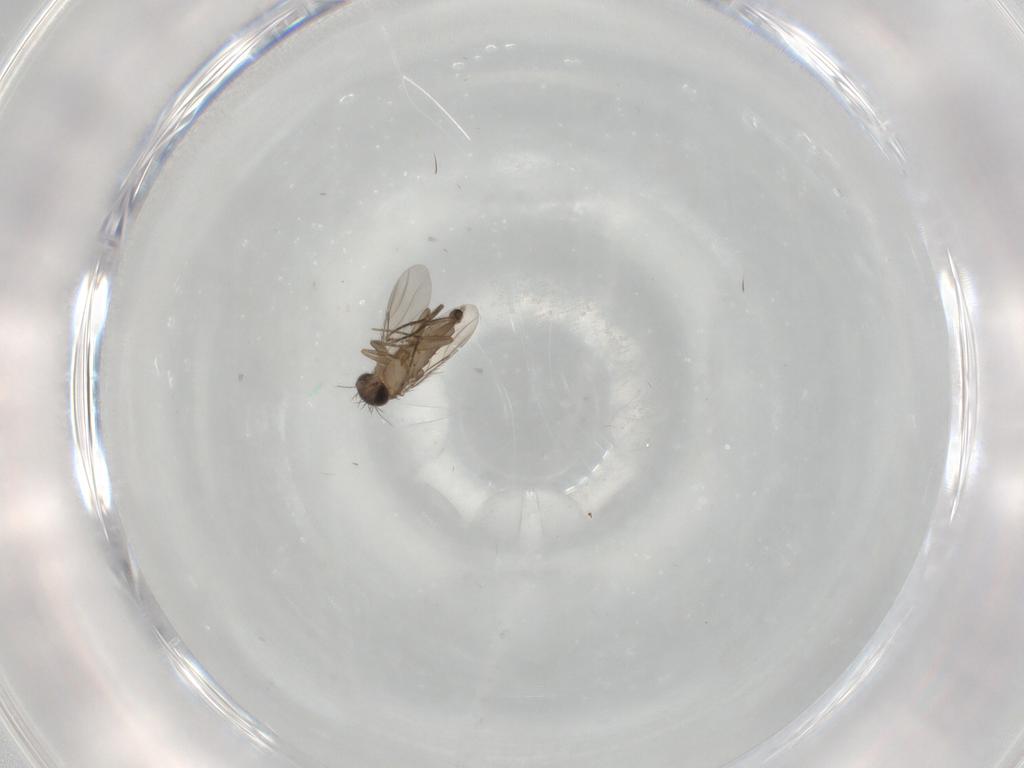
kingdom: Animalia
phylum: Arthropoda
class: Insecta
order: Diptera
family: Phoridae
